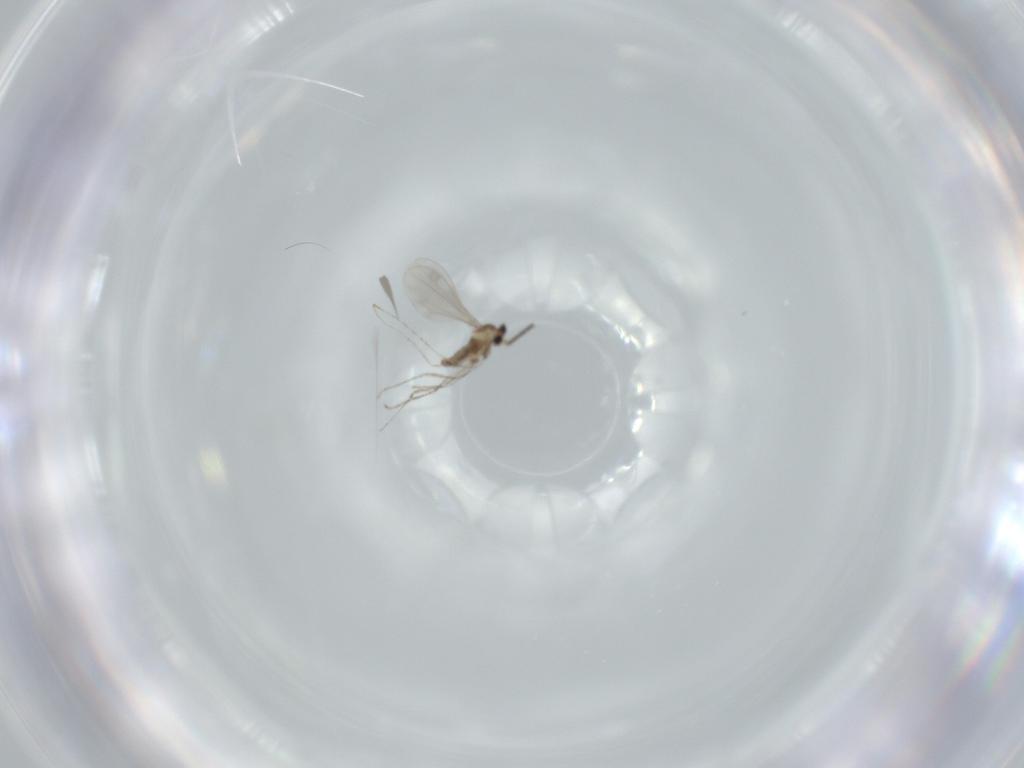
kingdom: Animalia
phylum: Arthropoda
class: Insecta
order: Diptera
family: Cecidomyiidae
